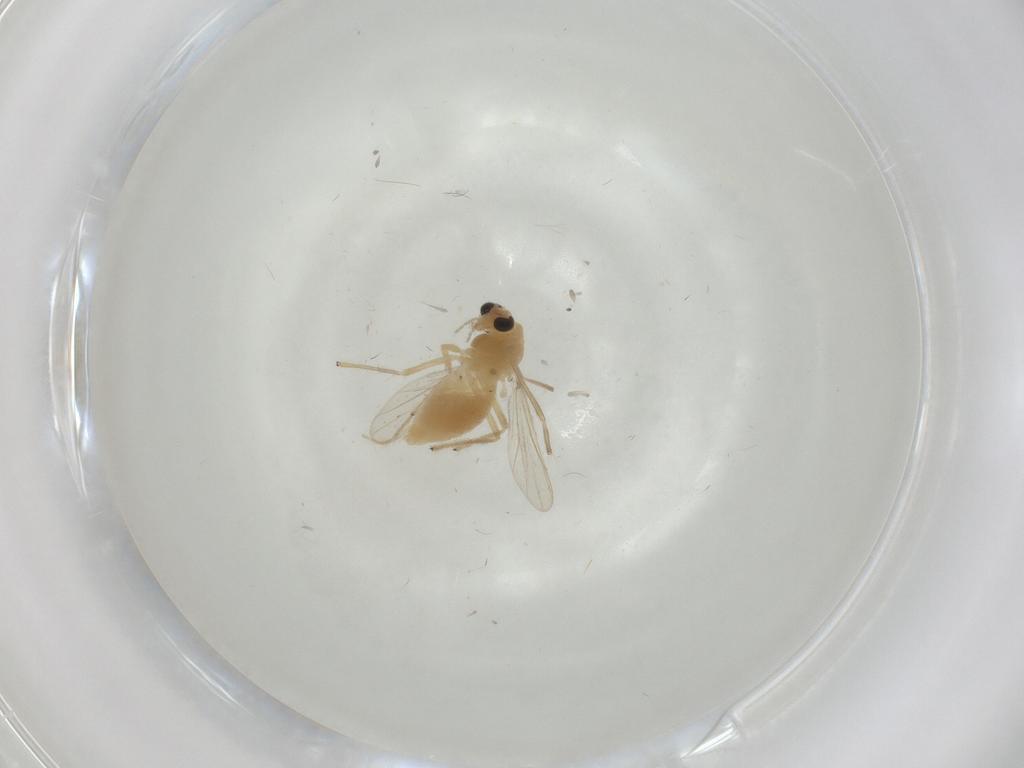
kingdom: Animalia
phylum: Arthropoda
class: Insecta
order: Diptera
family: Chironomidae
